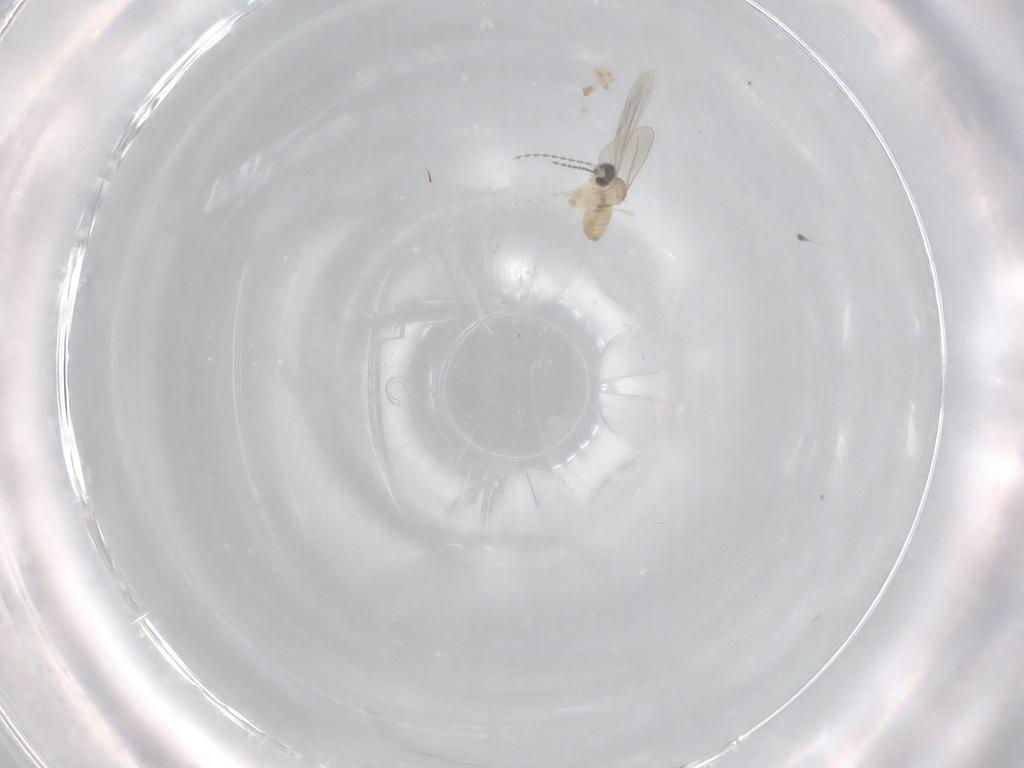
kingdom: Animalia
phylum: Arthropoda
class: Insecta
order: Diptera
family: Cecidomyiidae
